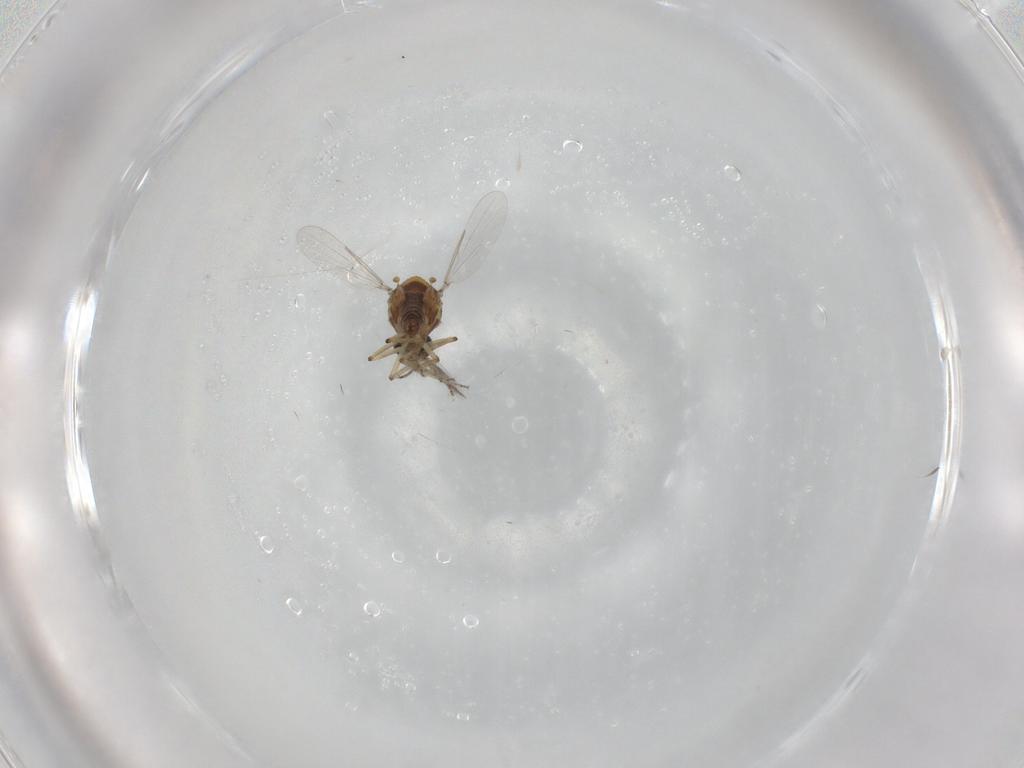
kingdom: Animalia
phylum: Arthropoda
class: Insecta
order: Diptera
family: Ceratopogonidae
